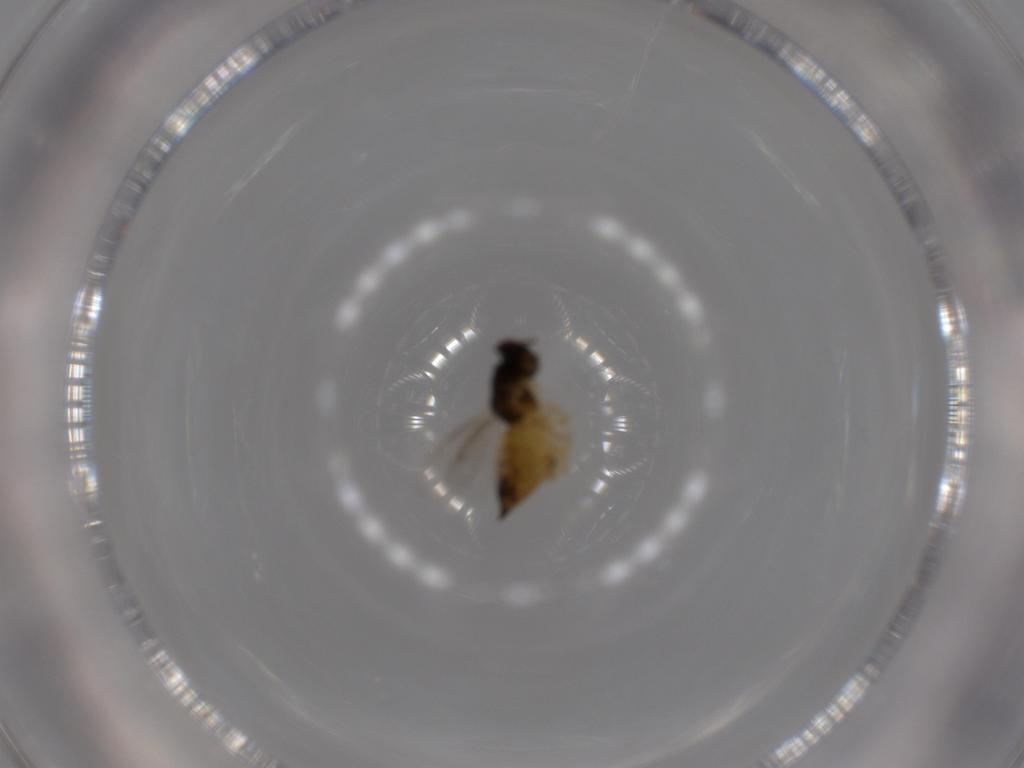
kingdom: Animalia
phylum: Arthropoda
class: Insecta
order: Hymenoptera
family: Eulophidae
